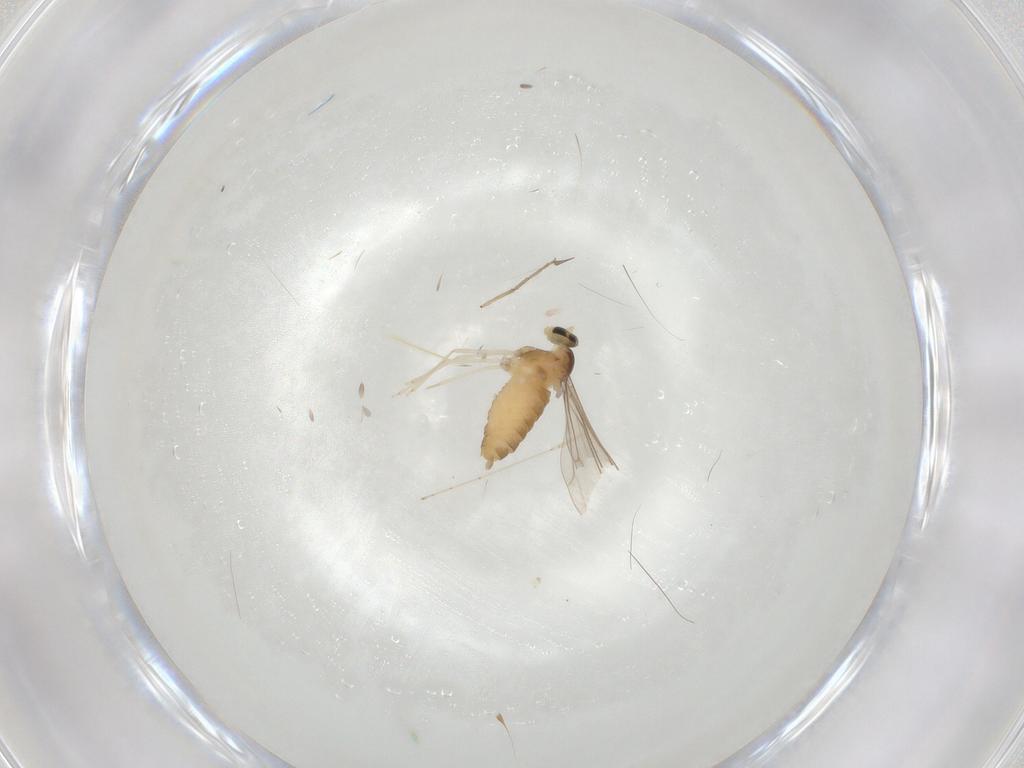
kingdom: Animalia
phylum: Arthropoda
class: Insecta
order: Diptera
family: Cecidomyiidae
